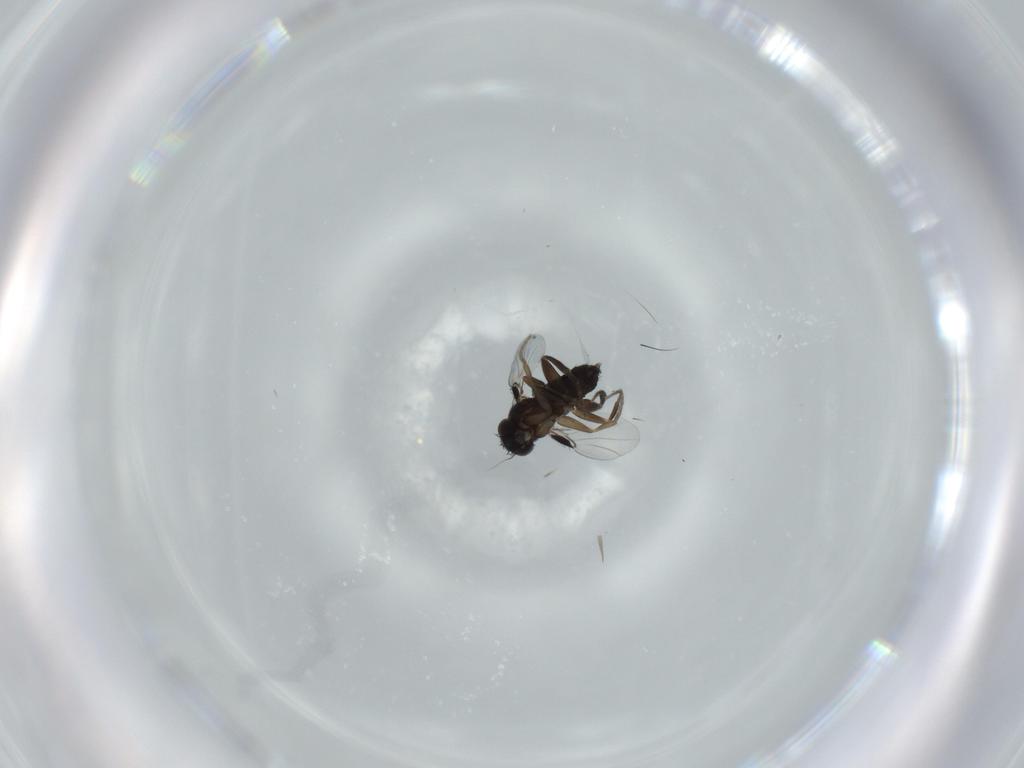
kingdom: Animalia
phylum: Arthropoda
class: Insecta
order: Diptera
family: Phoridae
